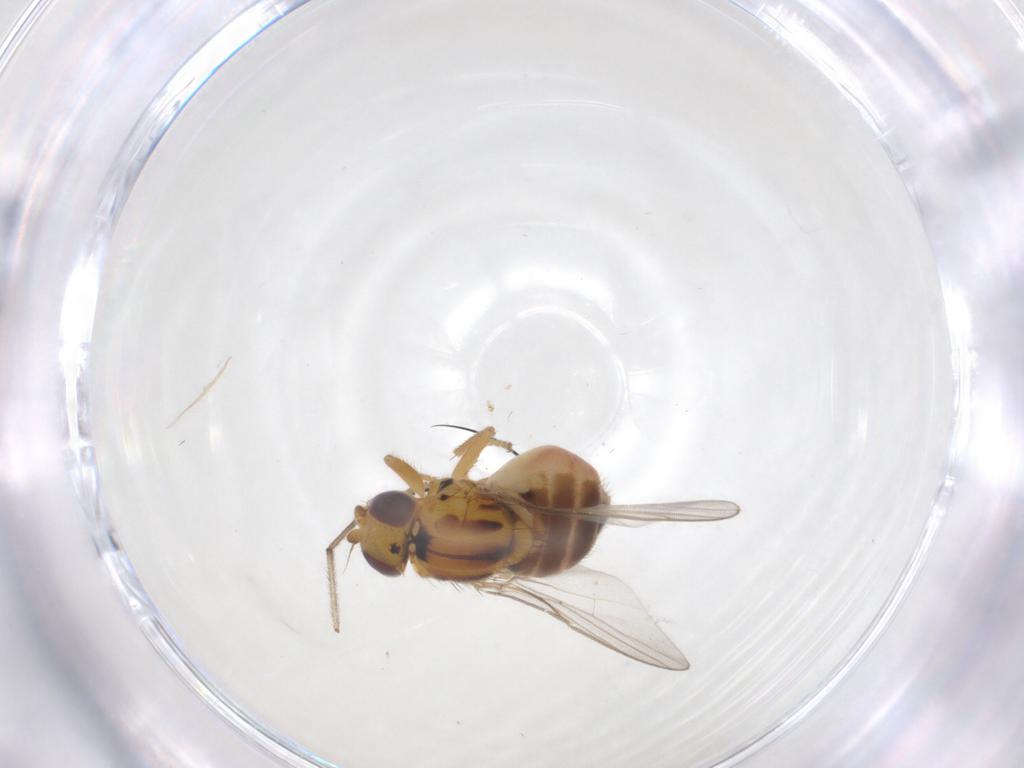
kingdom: Animalia
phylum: Arthropoda
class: Insecta
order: Diptera
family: Chloropidae
